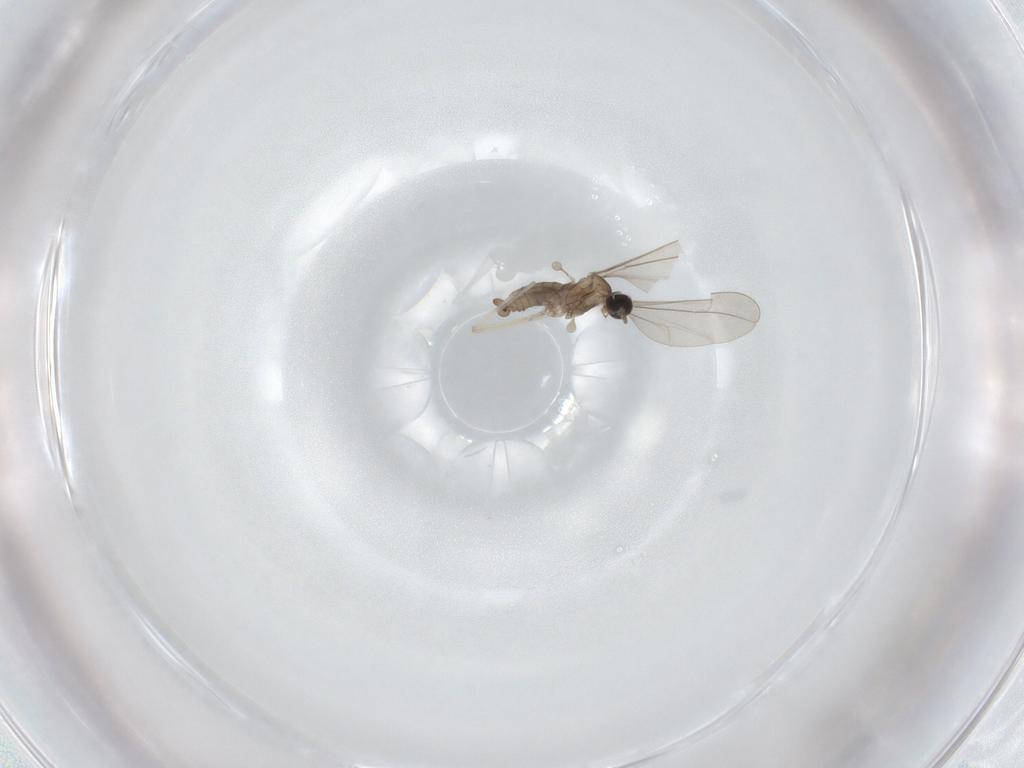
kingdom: Animalia
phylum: Arthropoda
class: Insecta
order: Diptera
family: Cecidomyiidae
